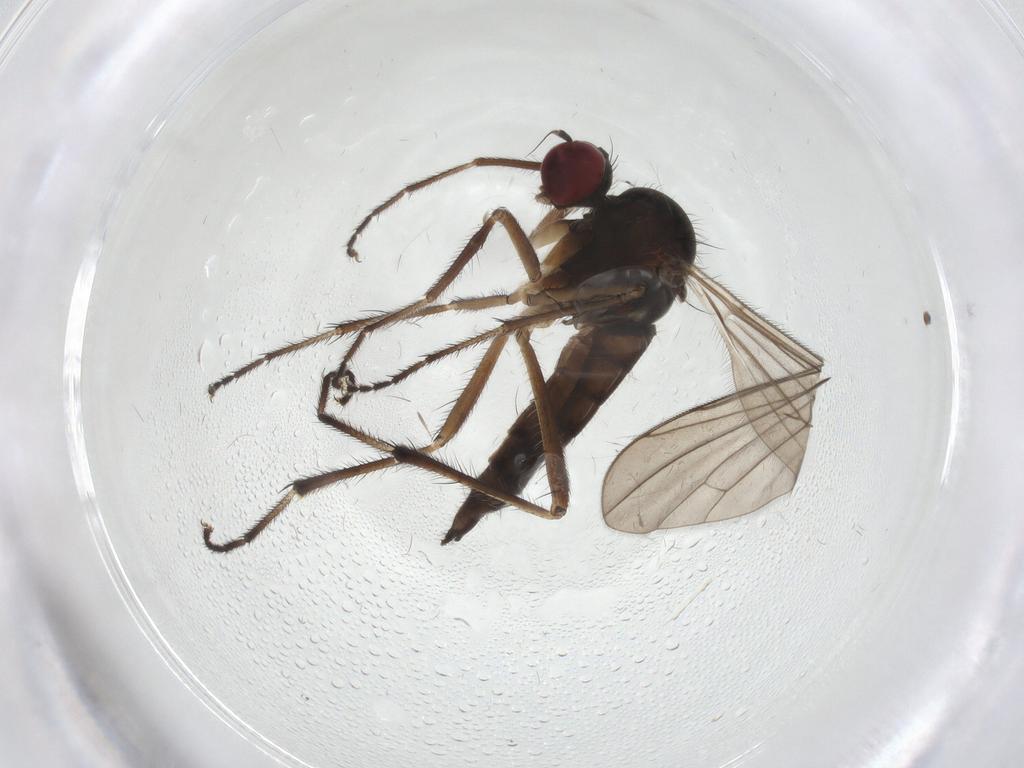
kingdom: Animalia
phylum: Arthropoda
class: Insecta
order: Diptera
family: Hybotidae
